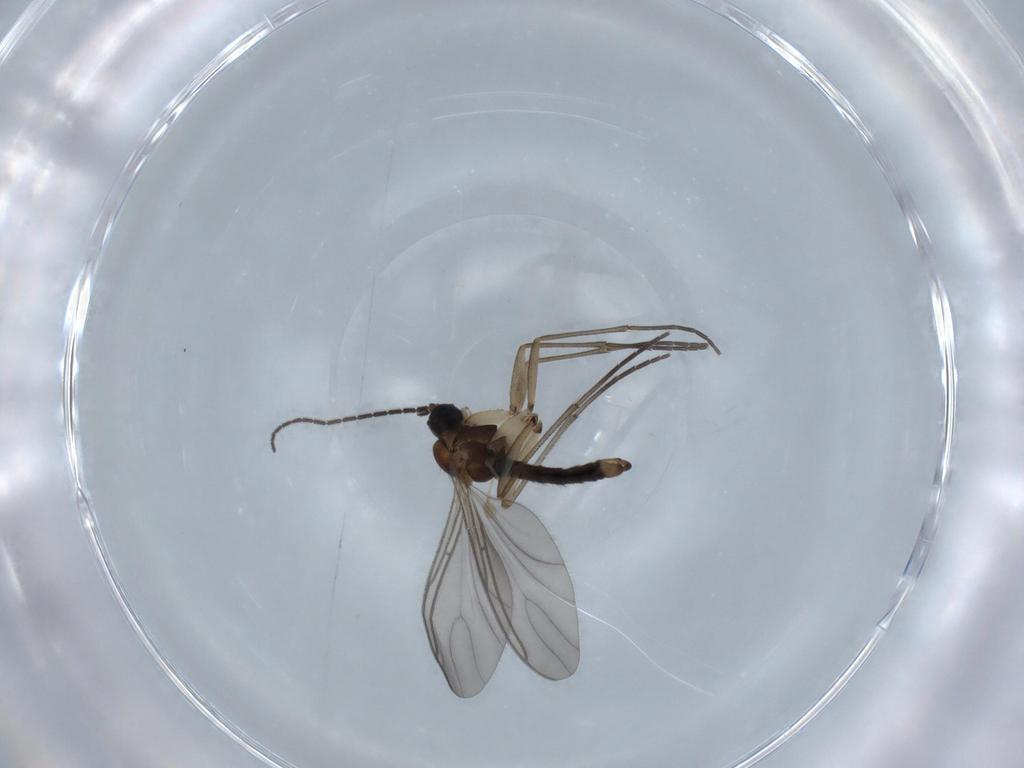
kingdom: Animalia
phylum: Arthropoda
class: Insecta
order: Diptera
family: Sciaridae
